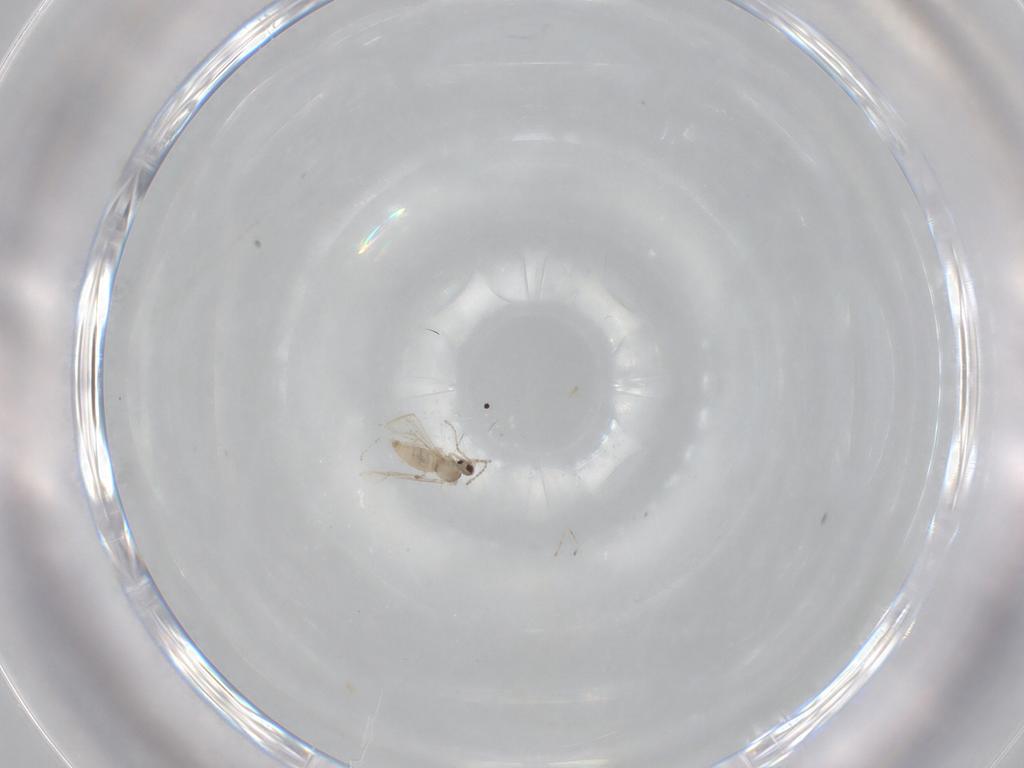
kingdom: Animalia
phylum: Arthropoda
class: Insecta
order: Diptera
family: Cecidomyiidae
